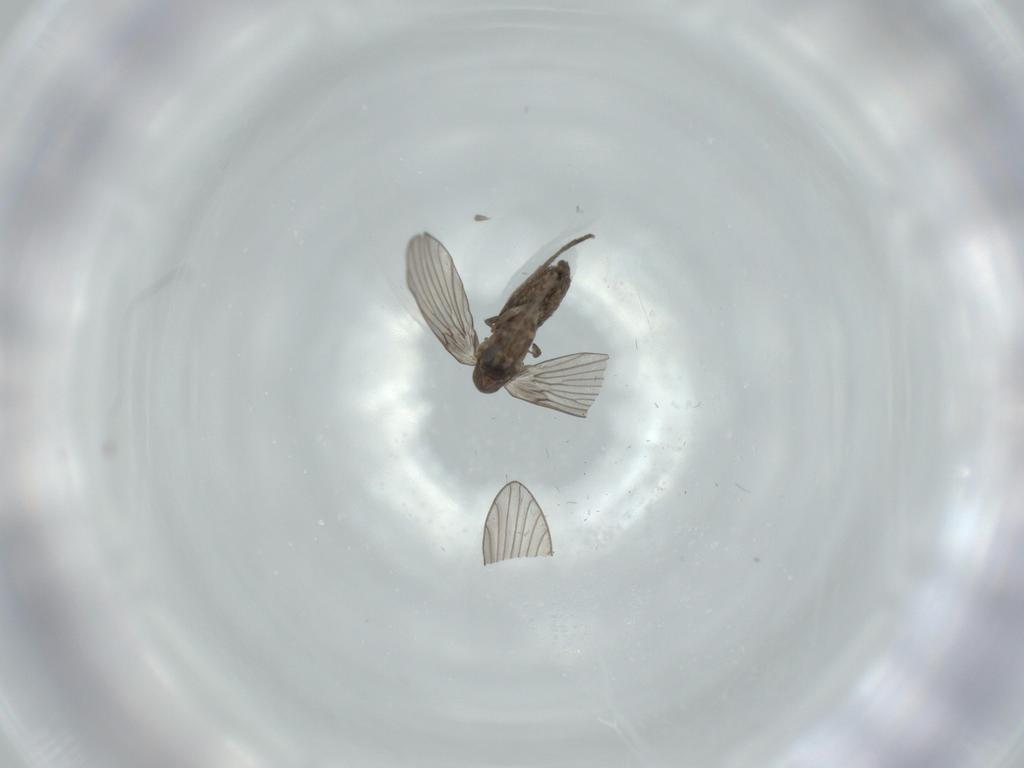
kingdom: Animalia
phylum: Arthropoda
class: Insecta
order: Diptera
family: Psychodidae
